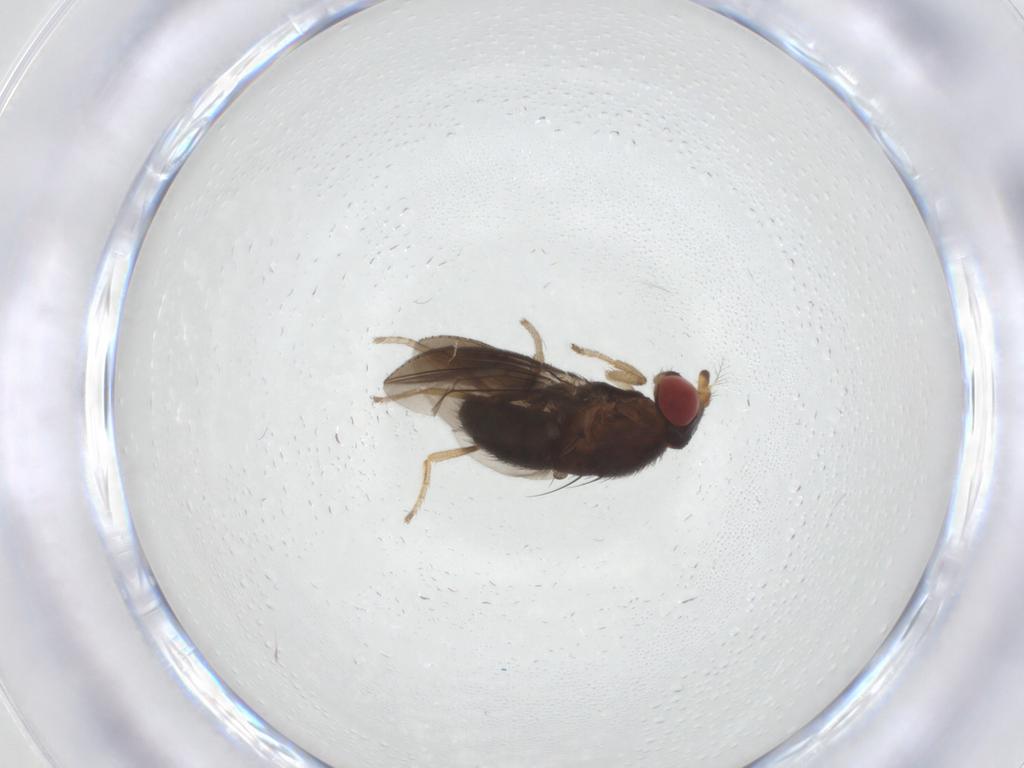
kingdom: Animalia
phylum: Arthropoda
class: Insecta
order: Diptera
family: Drosophilidae
